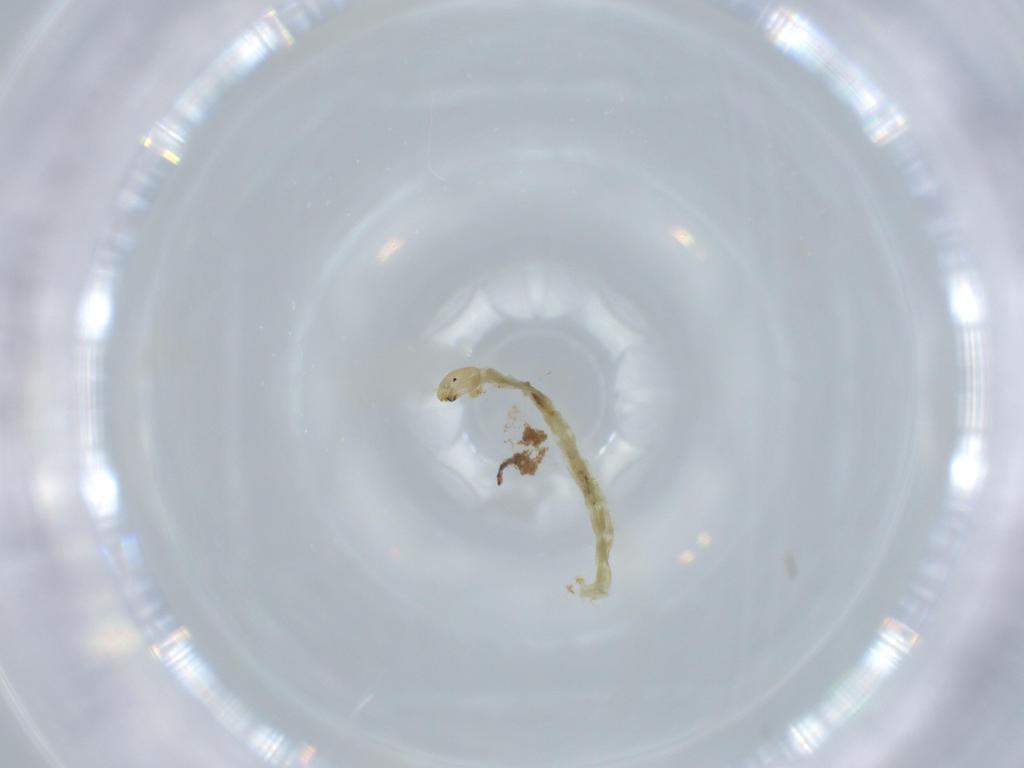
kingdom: Animalia
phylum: Arthropoda
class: Insecta
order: Diptera
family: Chironomidae
